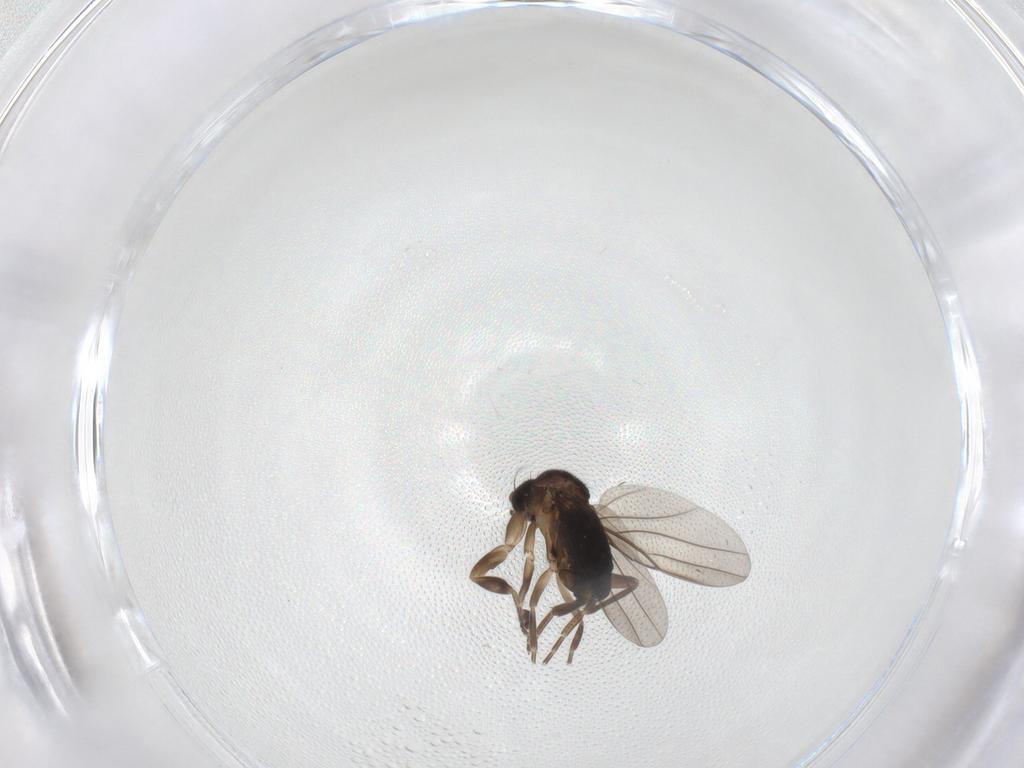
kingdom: Animalia
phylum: Arthropoda
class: Insecta
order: Diptera
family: Phoridae
